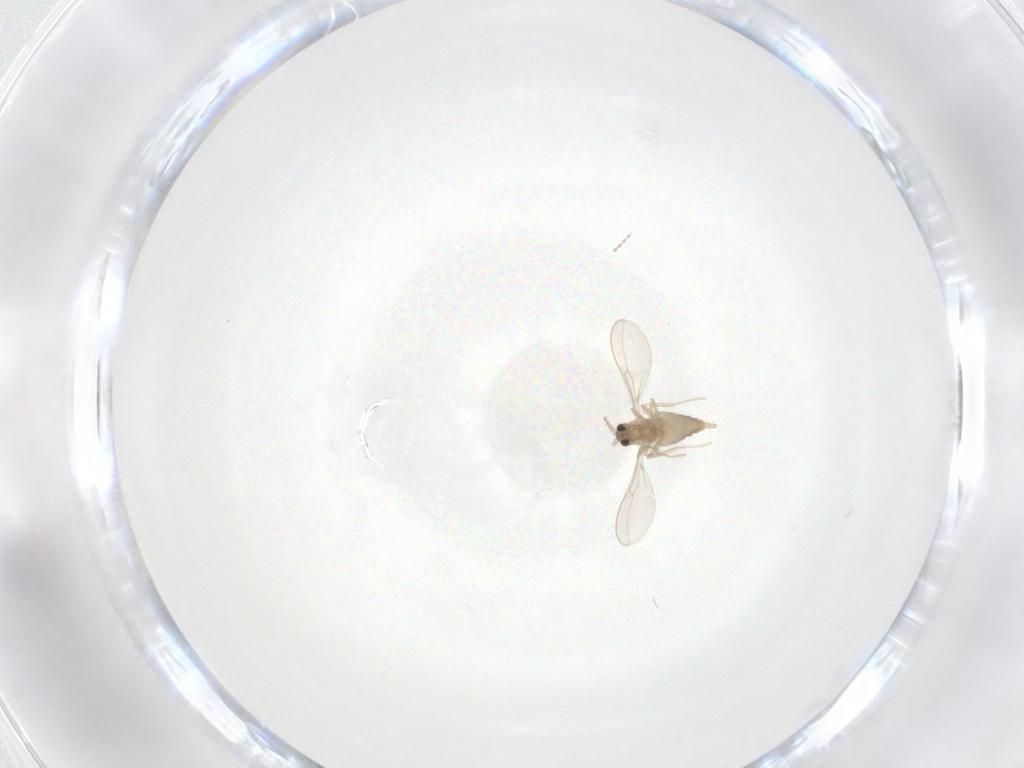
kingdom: Animalia
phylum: Arthropoda
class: Insecta
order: Diptera
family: Cecidomyiidae
